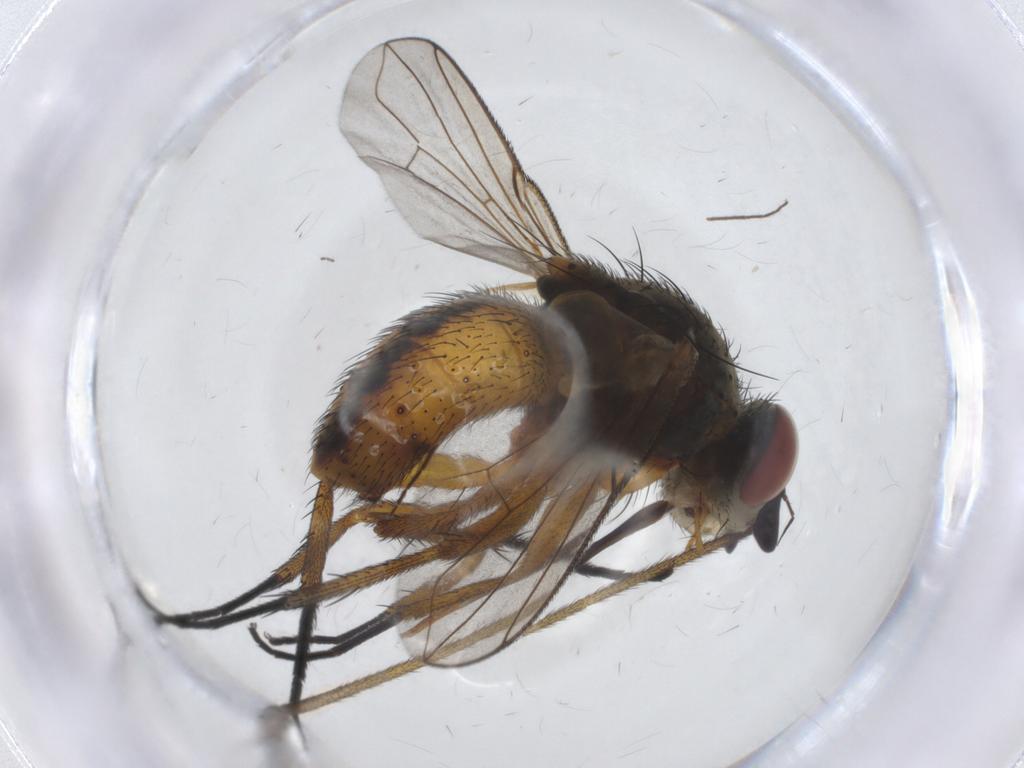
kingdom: Animalia
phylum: Arthropoda
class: Insecta
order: Diptera
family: Tachinidae
